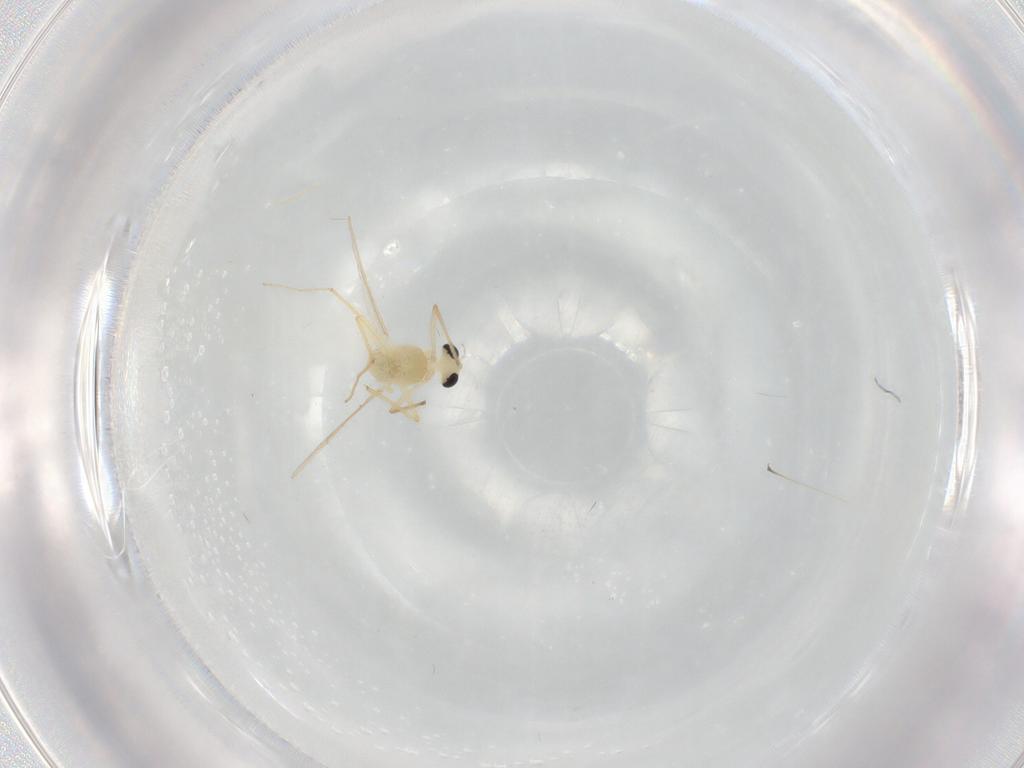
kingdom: Animalia
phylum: Arthropoda
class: Insecta
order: Diptera
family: Chironomidae
